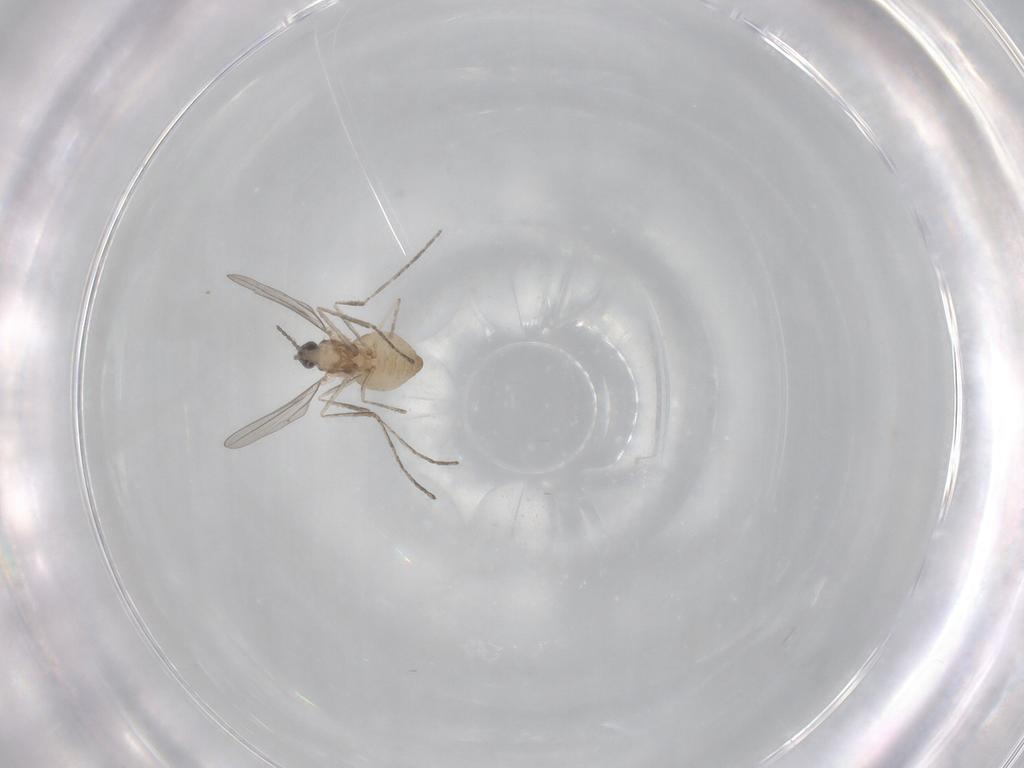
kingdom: Animalia
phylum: Arthropoda
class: Insecta
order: Diptera
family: Cecidomyiidae
